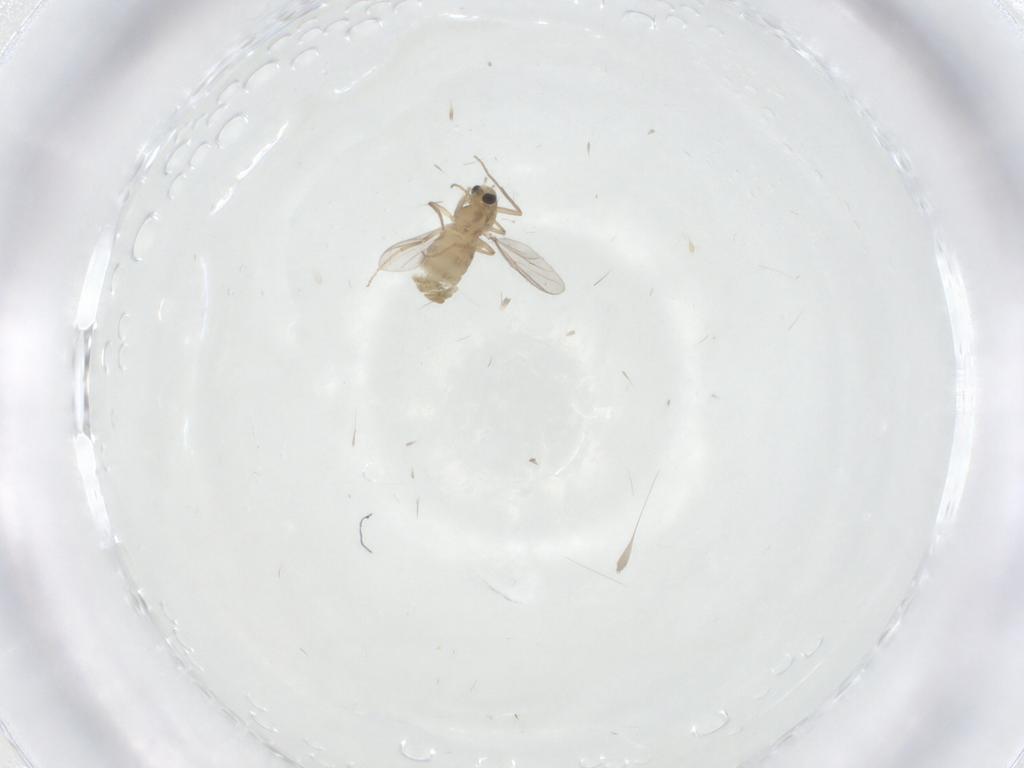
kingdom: Animalia
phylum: Arthropoda
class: Insecta
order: Diptera
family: Chironomidae
